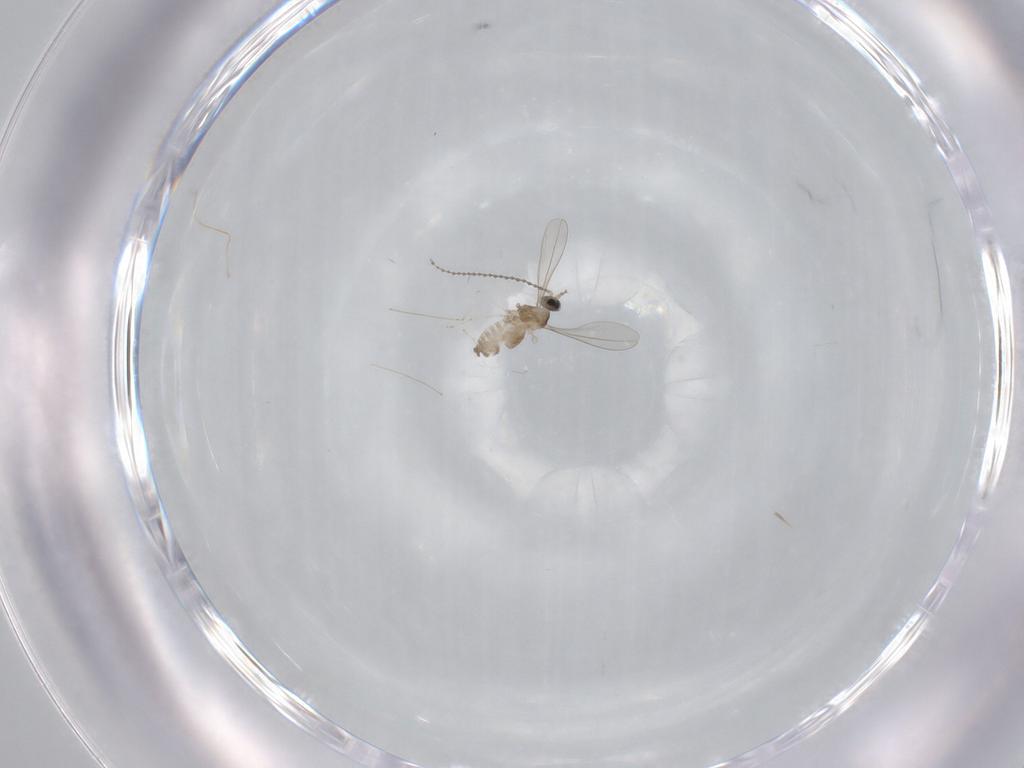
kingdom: Animalia
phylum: Arthropoda
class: Insecta
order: Diptera
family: Cecidomyiidae
